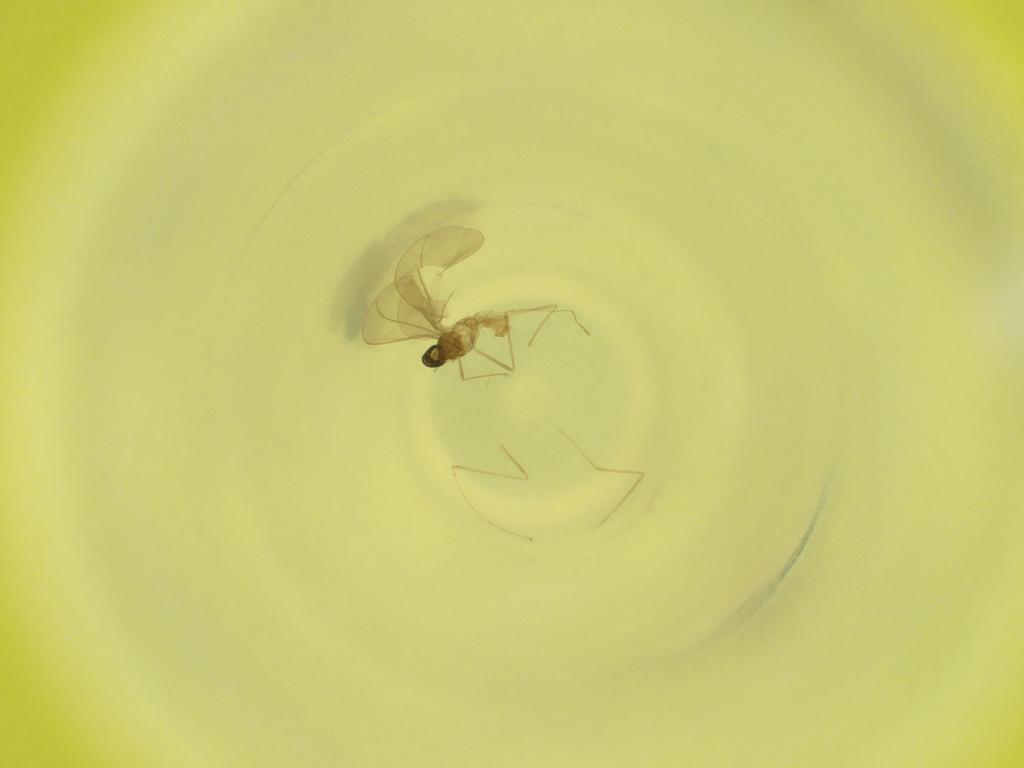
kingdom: Animalia
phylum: Arthropoda
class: Insecta
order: Diptera
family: Cecidomyiidae
